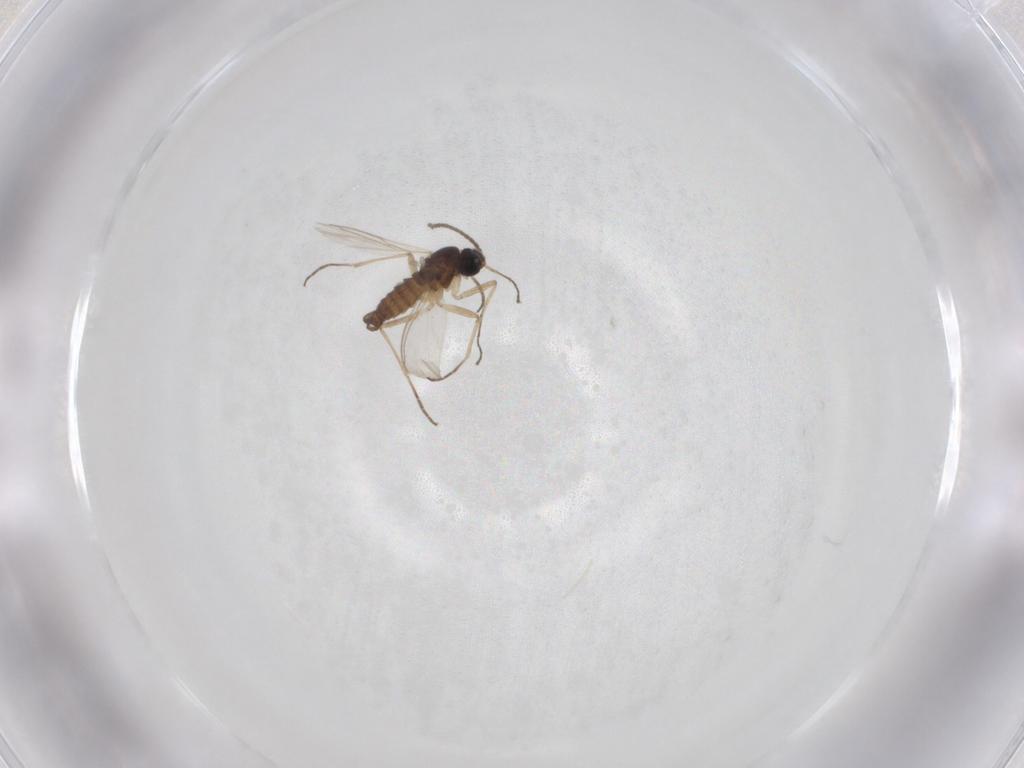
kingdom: Animalia
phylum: Arthropoda
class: Insecta
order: Diptera
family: Sciaridae
